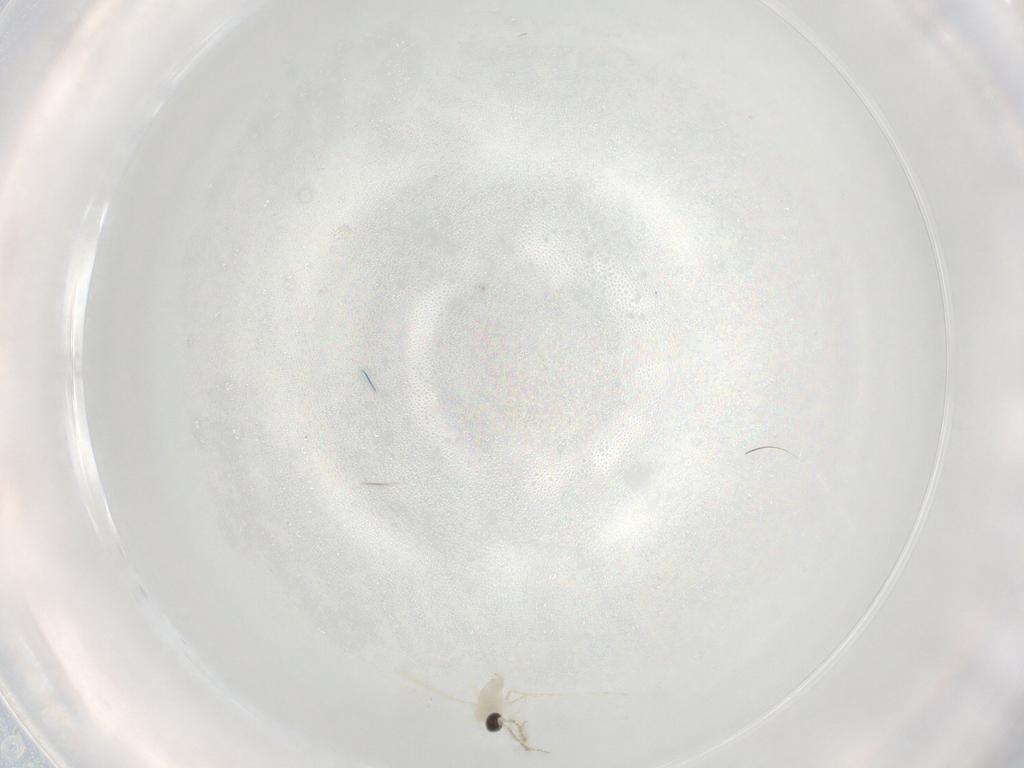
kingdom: Animalia
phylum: Arthropoda
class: Insecta
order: Diptera
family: Cecidomyiidae
